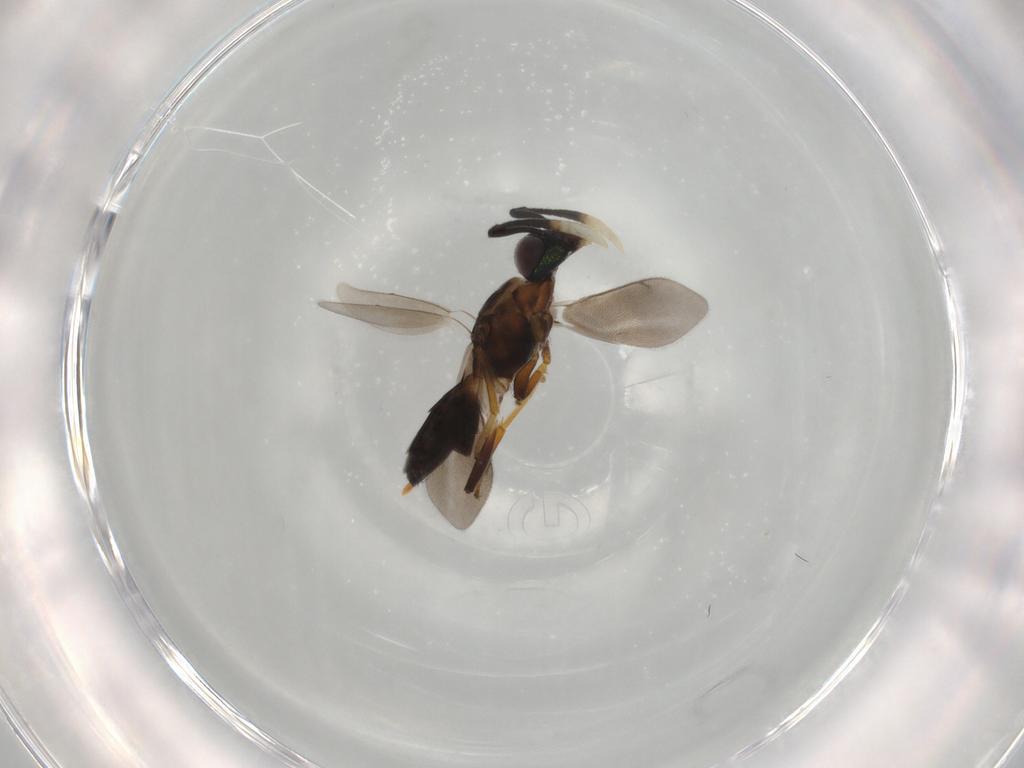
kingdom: Animalia
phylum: Arthropoda
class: Insecta
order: Hymenoptera
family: Eupelmidae
